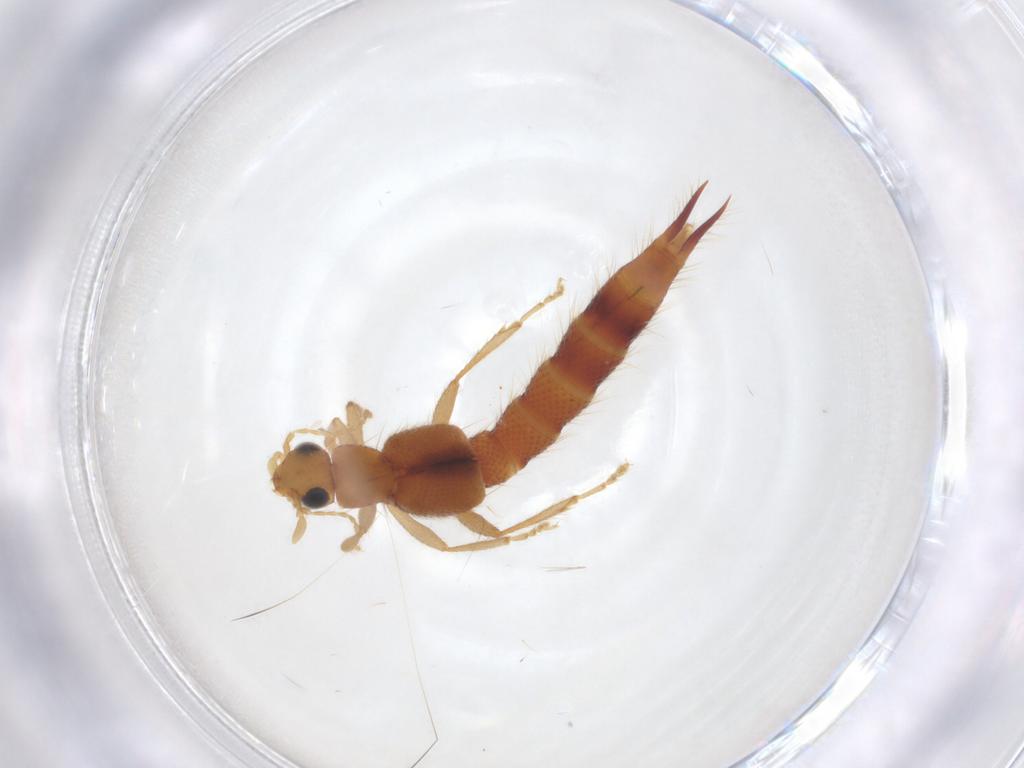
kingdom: Animalia
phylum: Arthropoda
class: Insecta
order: Coleoptera
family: Staphylinidae
